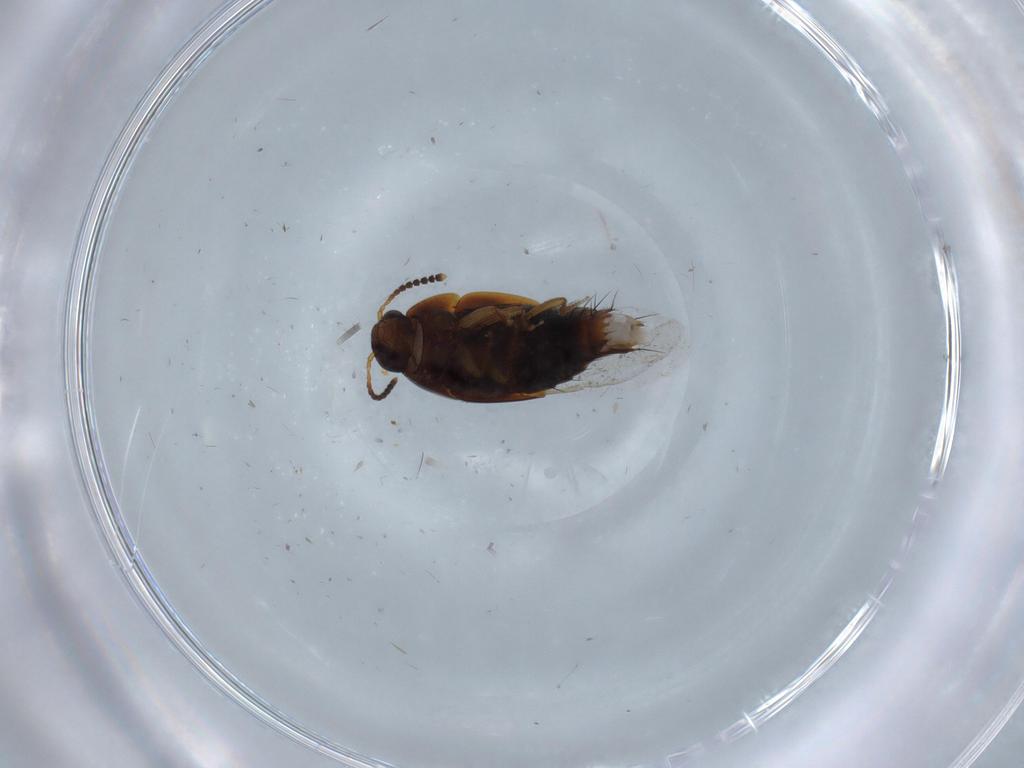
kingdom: Animalia
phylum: Arthropoda
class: Insecta
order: Coleoptera
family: Staphylinidae
